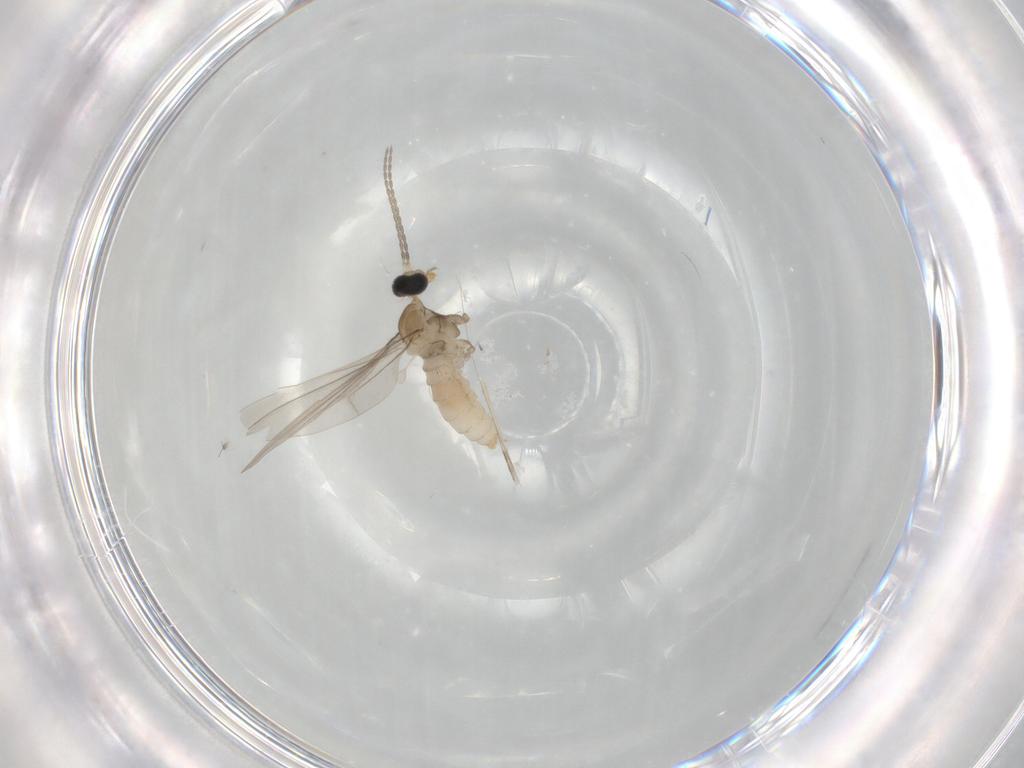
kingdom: Animalia
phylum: Arthropoda
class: Insecta
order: Diptera
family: Cecidomyiidae
